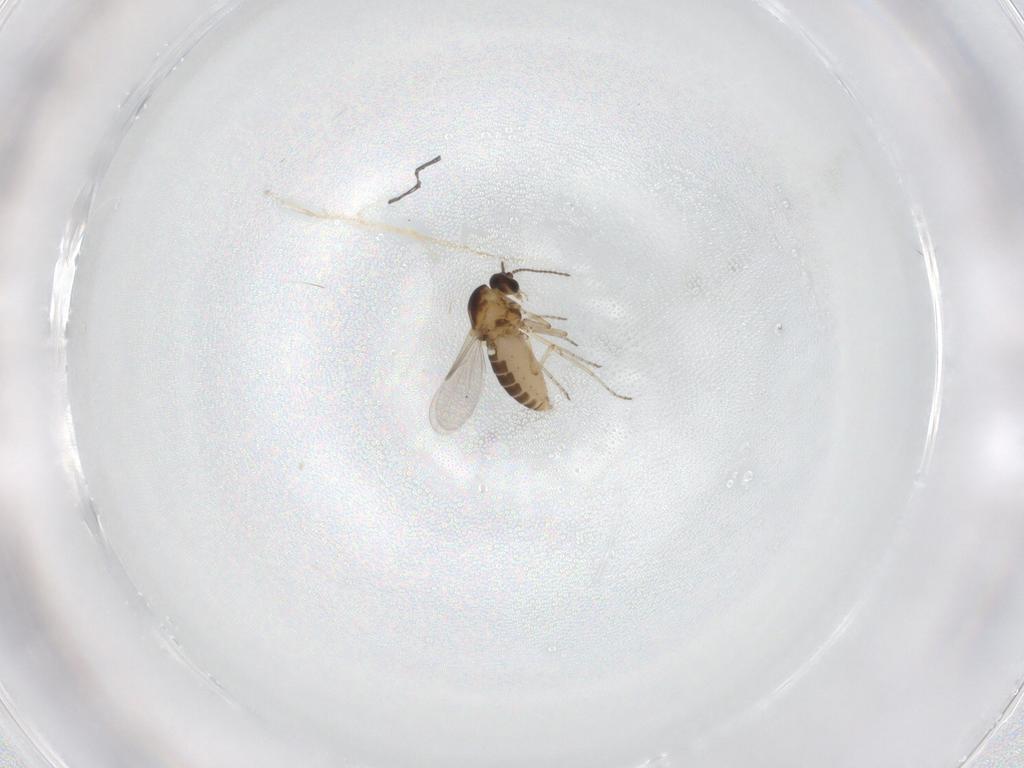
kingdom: Animalia
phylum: Arthropoda
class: Insecta
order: Diptera
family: Ceratopogonidae
